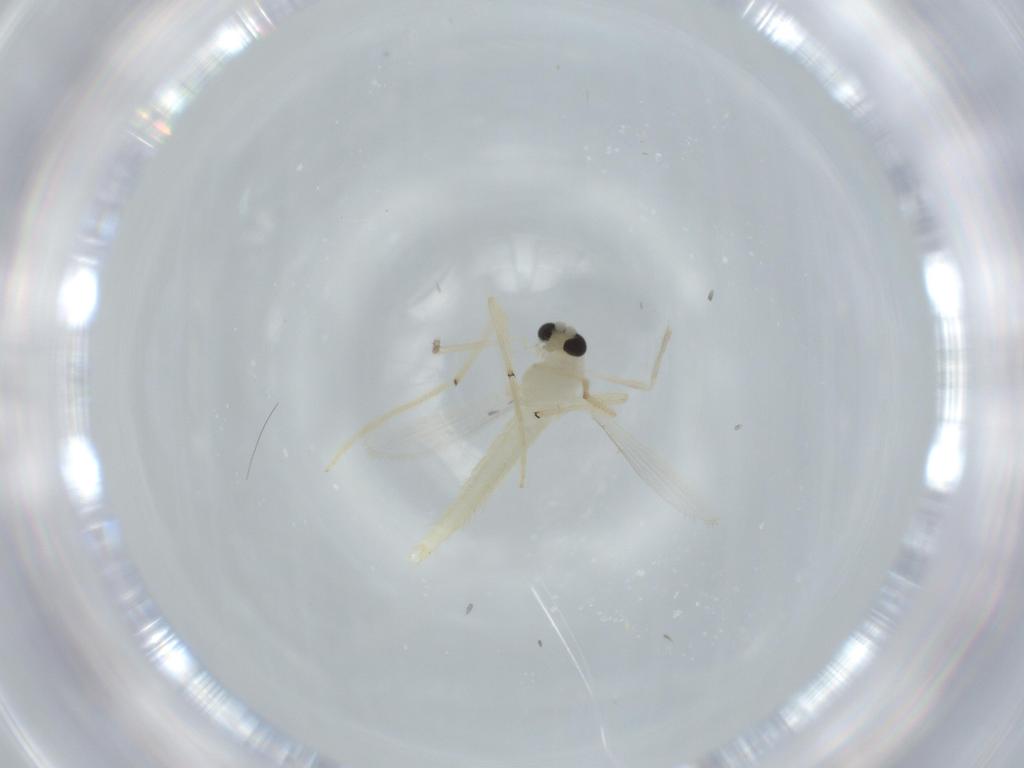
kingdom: Animalia
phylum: Arthropoda
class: Insecta
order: Diptera
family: Chironomidae
